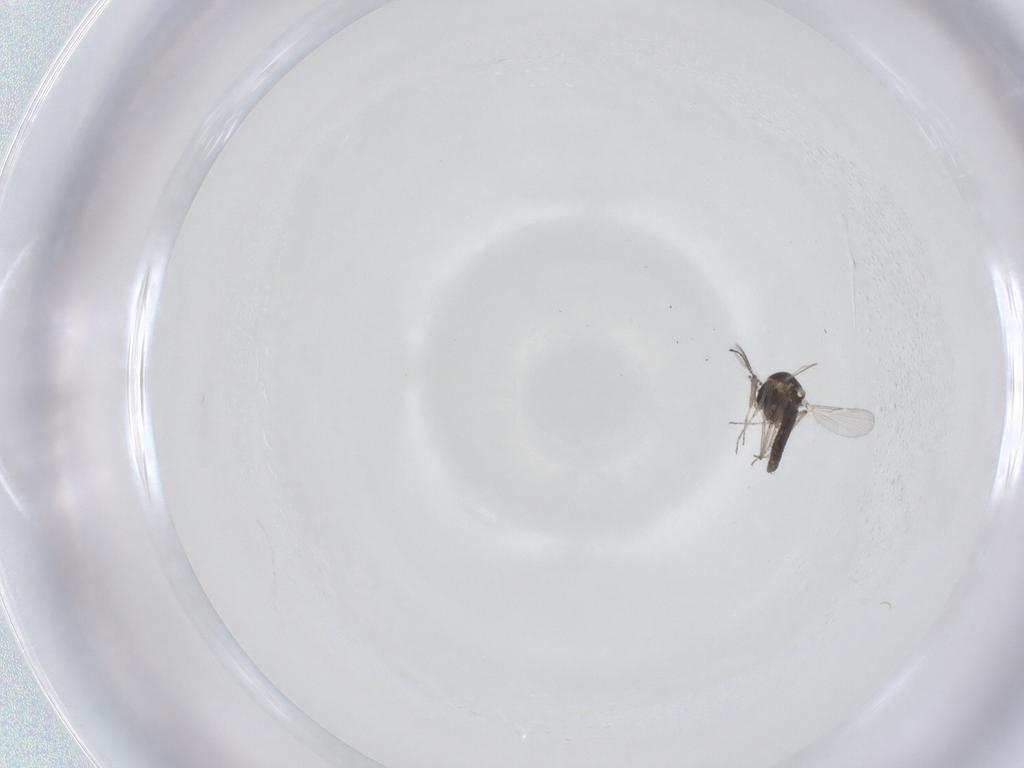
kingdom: Animalia
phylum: Arthropoda
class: Insecta
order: Diptera
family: Ceratopogonidae
